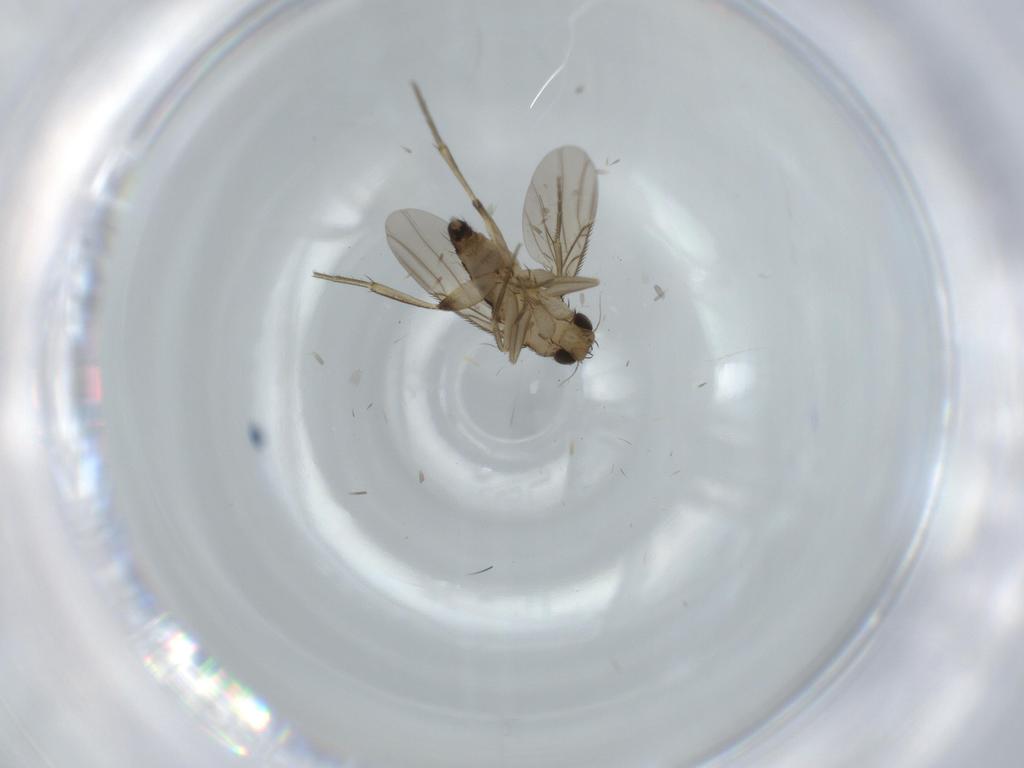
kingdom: Animalia
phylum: Arthropoda
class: Insecta
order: Diptera
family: Phoridae
